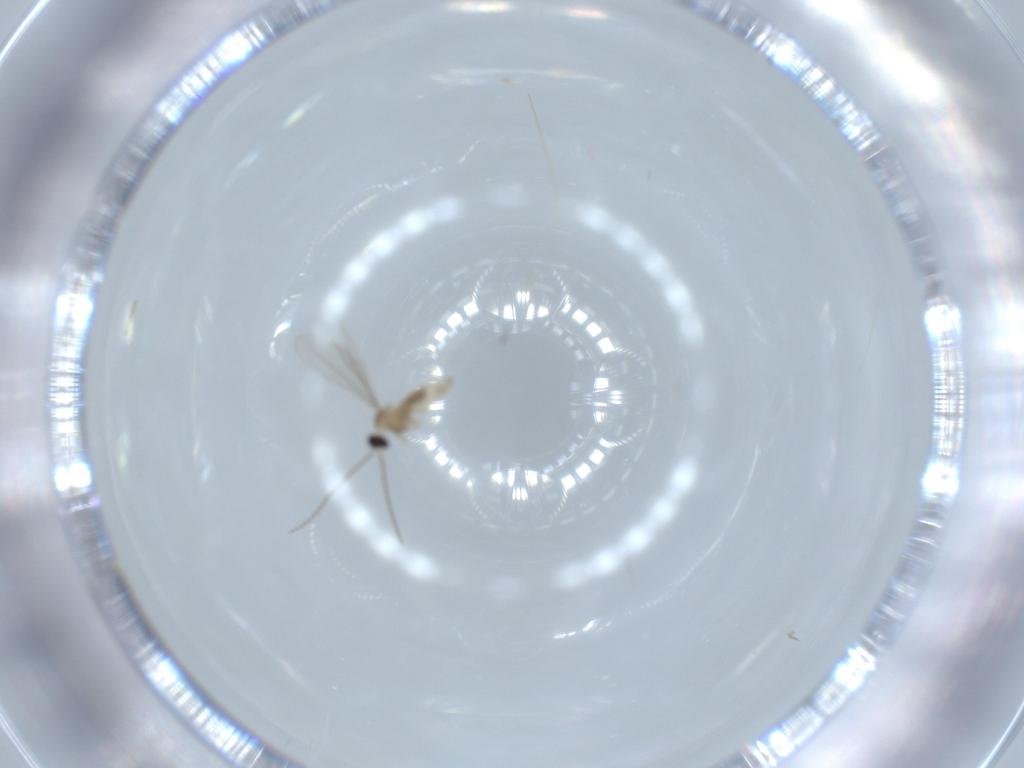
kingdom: Animalia
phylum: Arthropoda
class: Insecta
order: Diptera
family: Cecidomyiidae
